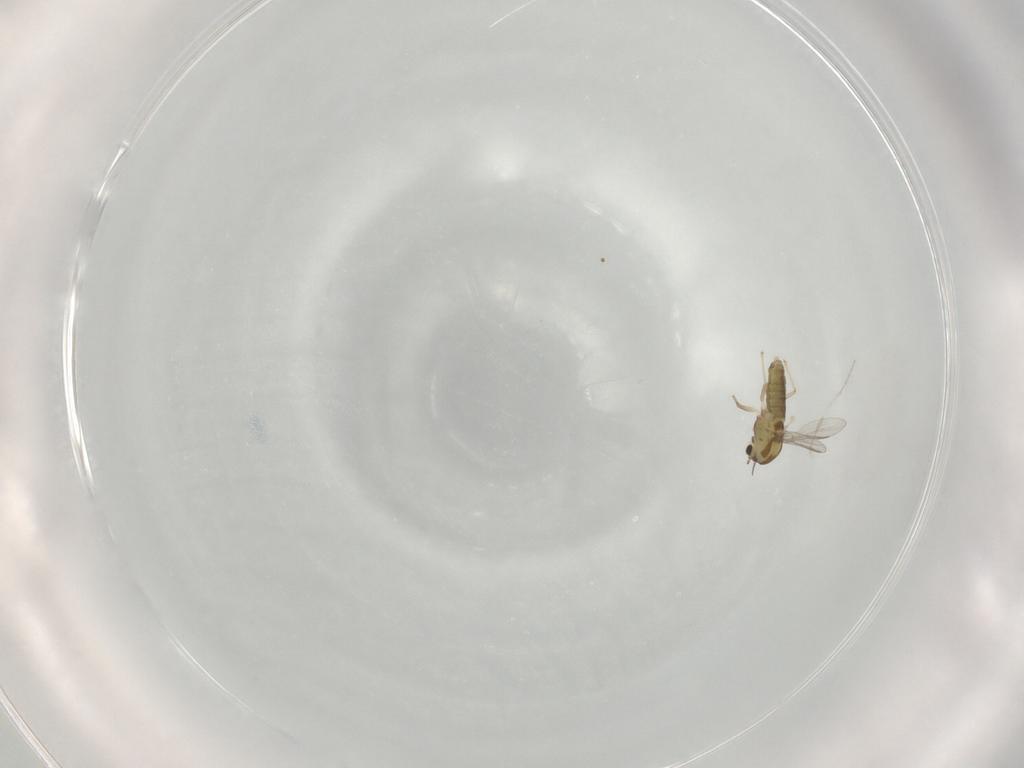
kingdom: Animalia
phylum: Arthropoda
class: Insecta
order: Diptera
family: Chironomidae
